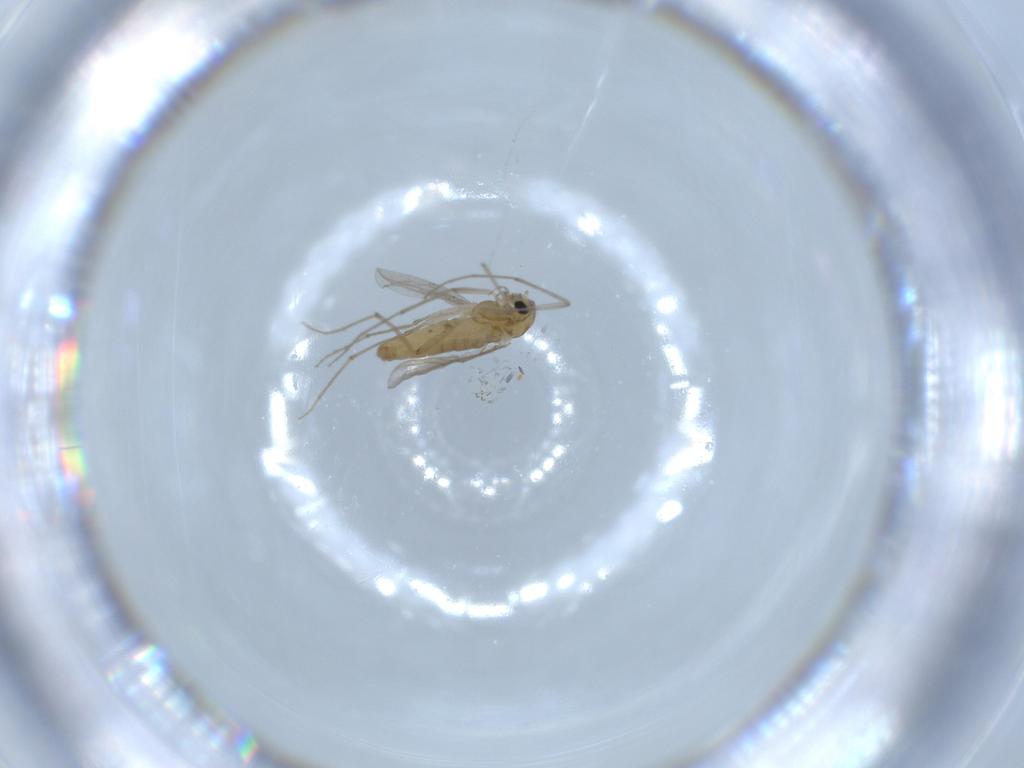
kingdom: Animalia
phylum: Arthropoda
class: Insecta
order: Diptera
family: Chironomidae
